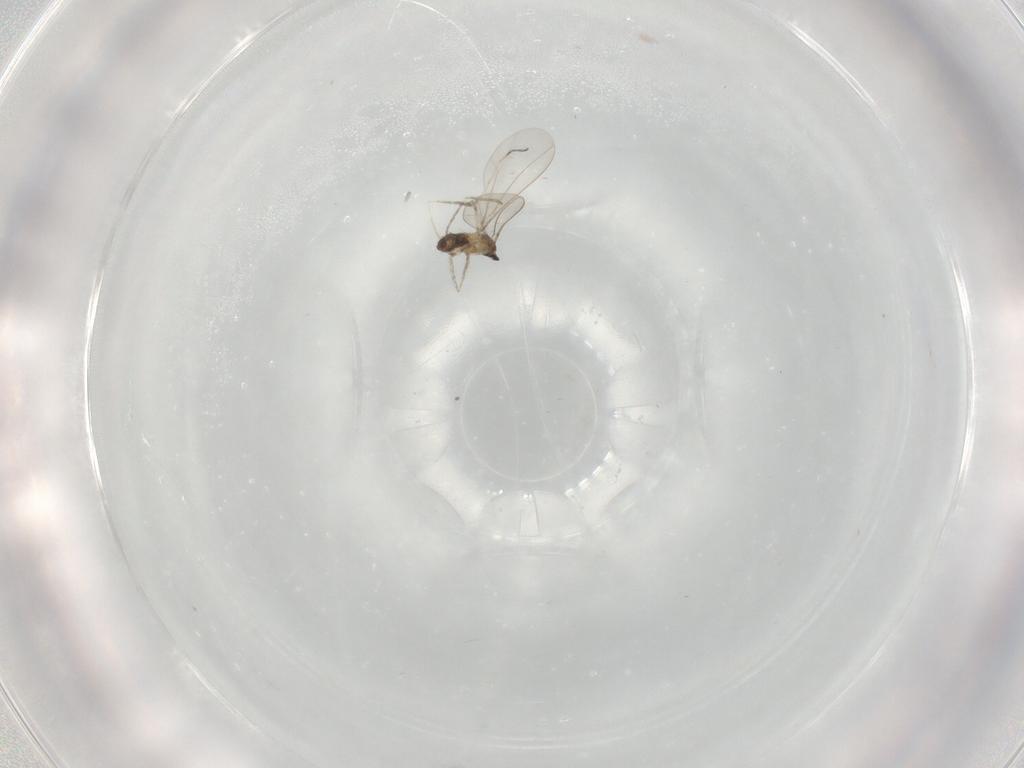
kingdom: Animalia
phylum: Arthropoda
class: Insecta
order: Diptera
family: Cecidomyiidae
